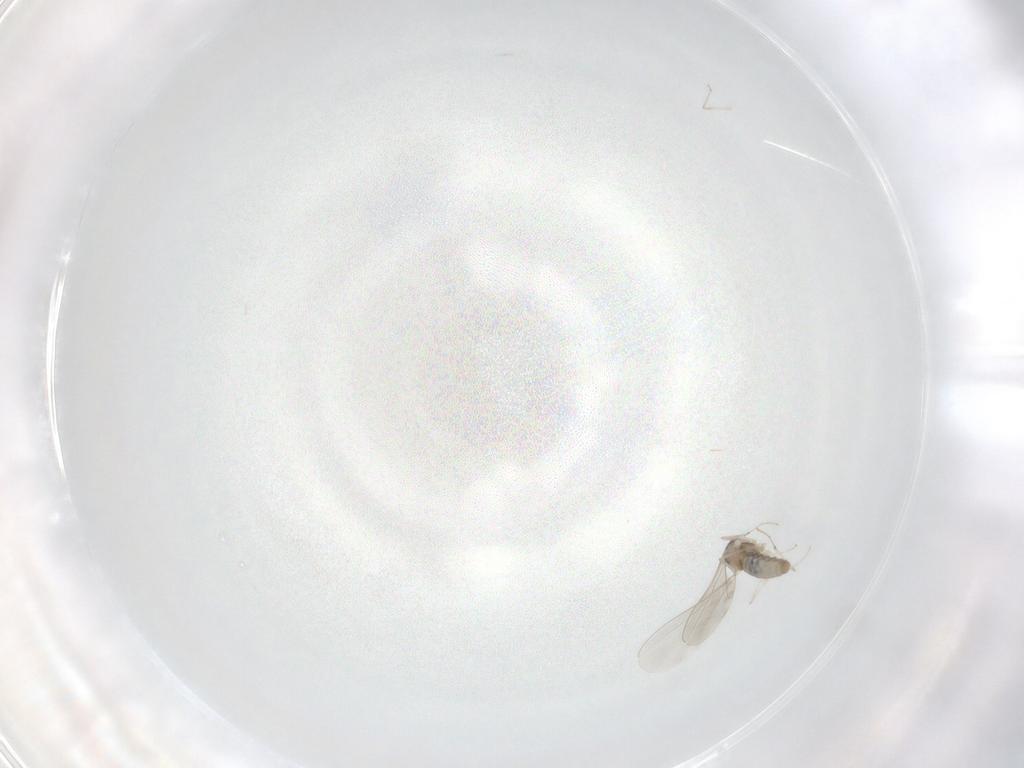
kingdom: Animalia
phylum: Arthropoda
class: Insecta
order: Diptera
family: Cecidomyiidae
